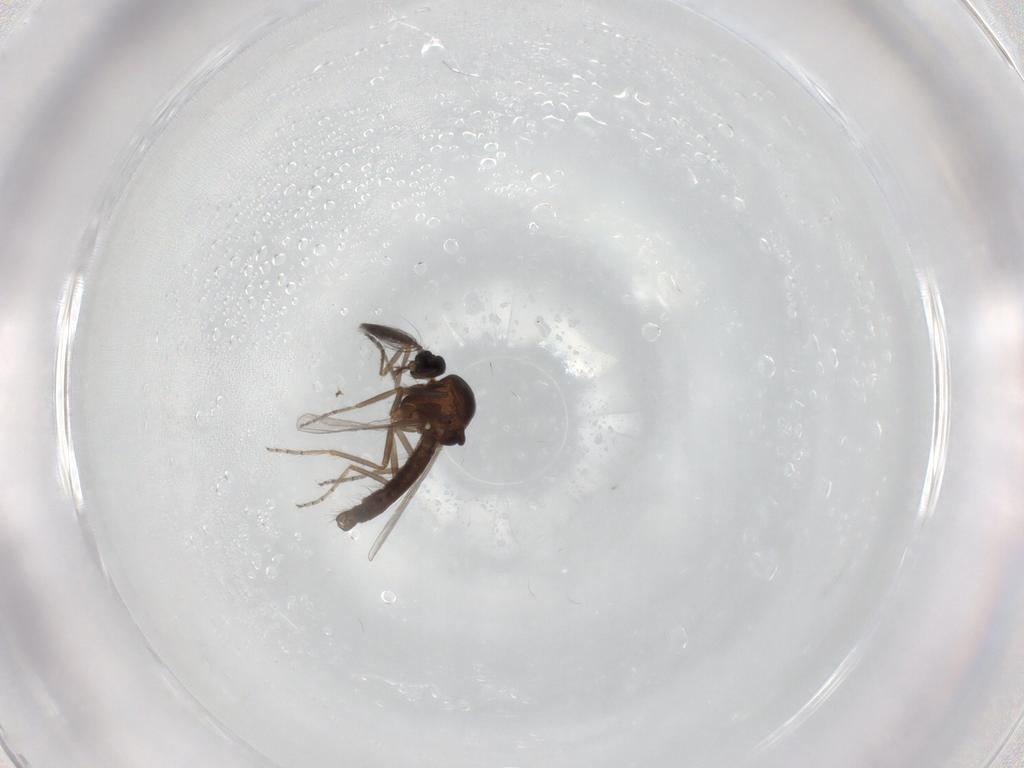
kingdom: Animalia
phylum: Arthropoda
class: Insecta
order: Diptera
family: Ceratopogonidae
